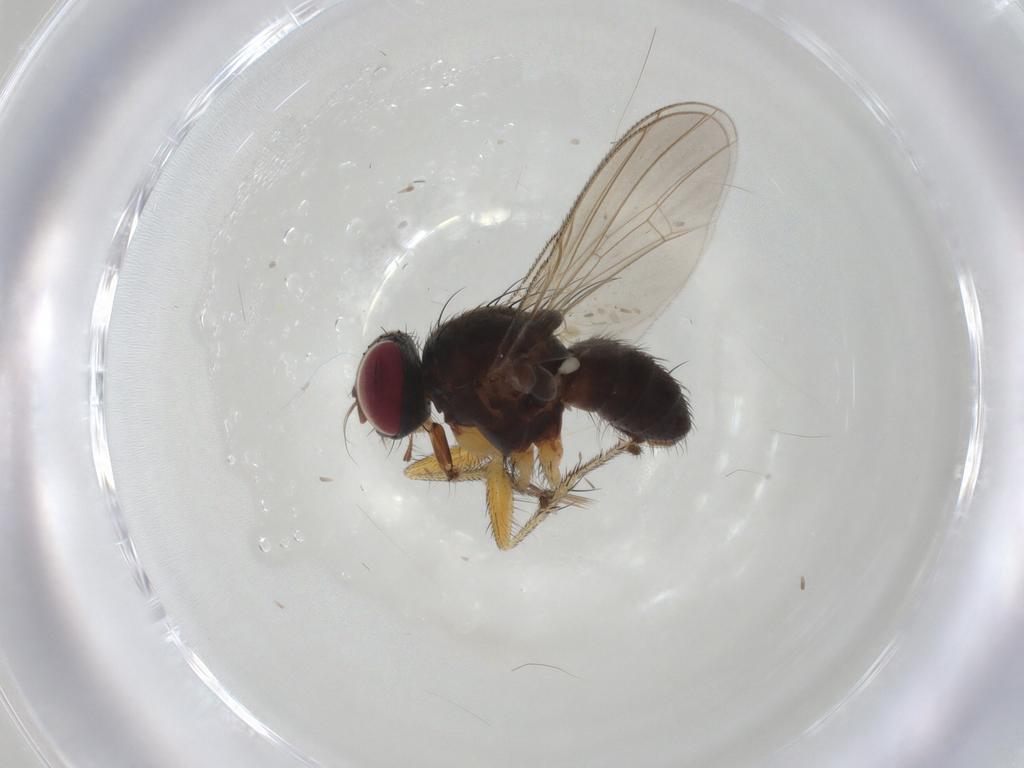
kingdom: Animalia
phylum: Arthropoda
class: Insecta
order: Diptera
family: Muscidae
